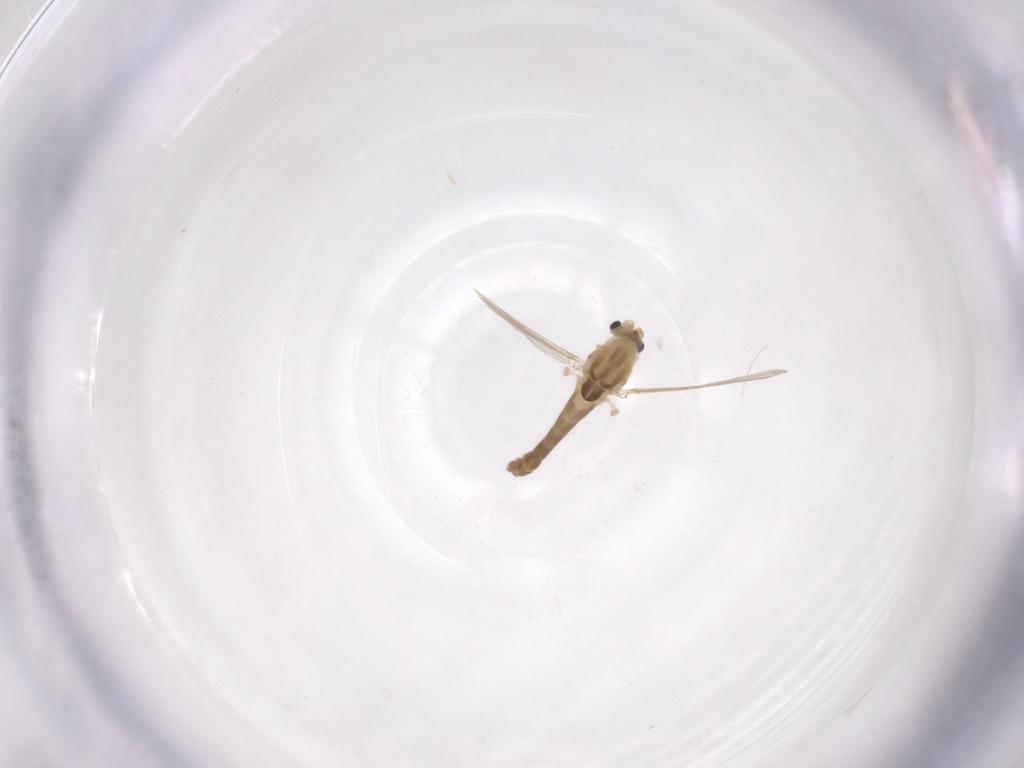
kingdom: Animalia
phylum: Arthropoda
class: Insecta
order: Diptera
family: Chironomidae
